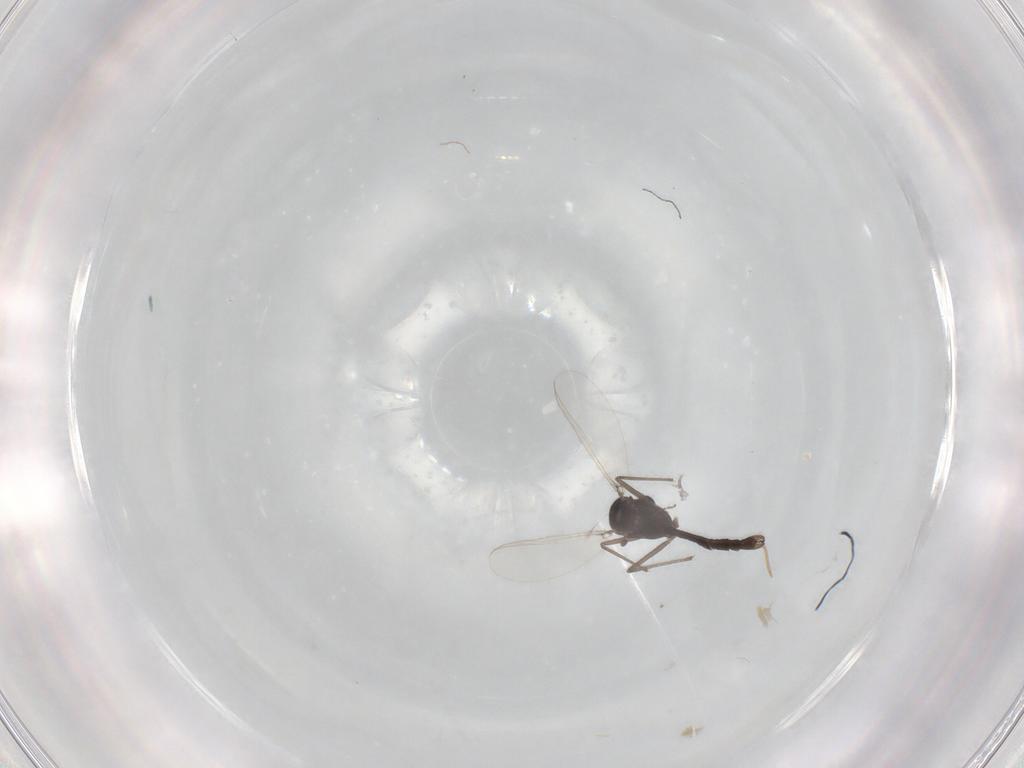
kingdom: Animalia
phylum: Arthropoda
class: Insecta
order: Diptera
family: Chironomidae
